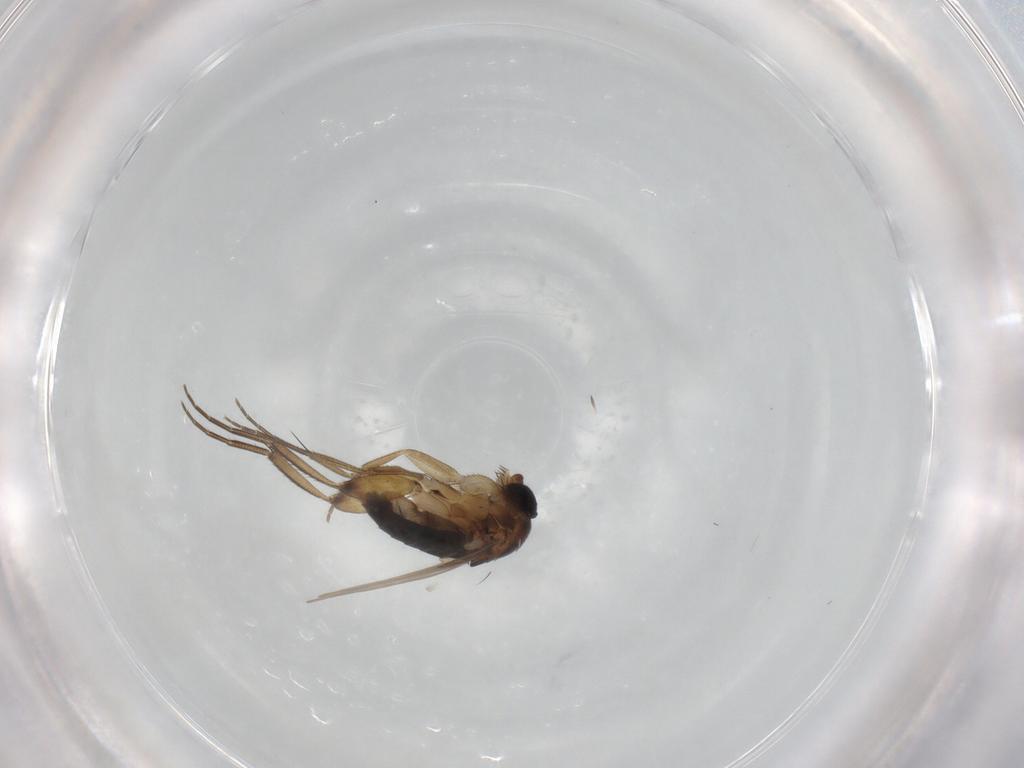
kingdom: Animalia
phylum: Arthropoda
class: Insecta
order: Diptera
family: Phoridae
